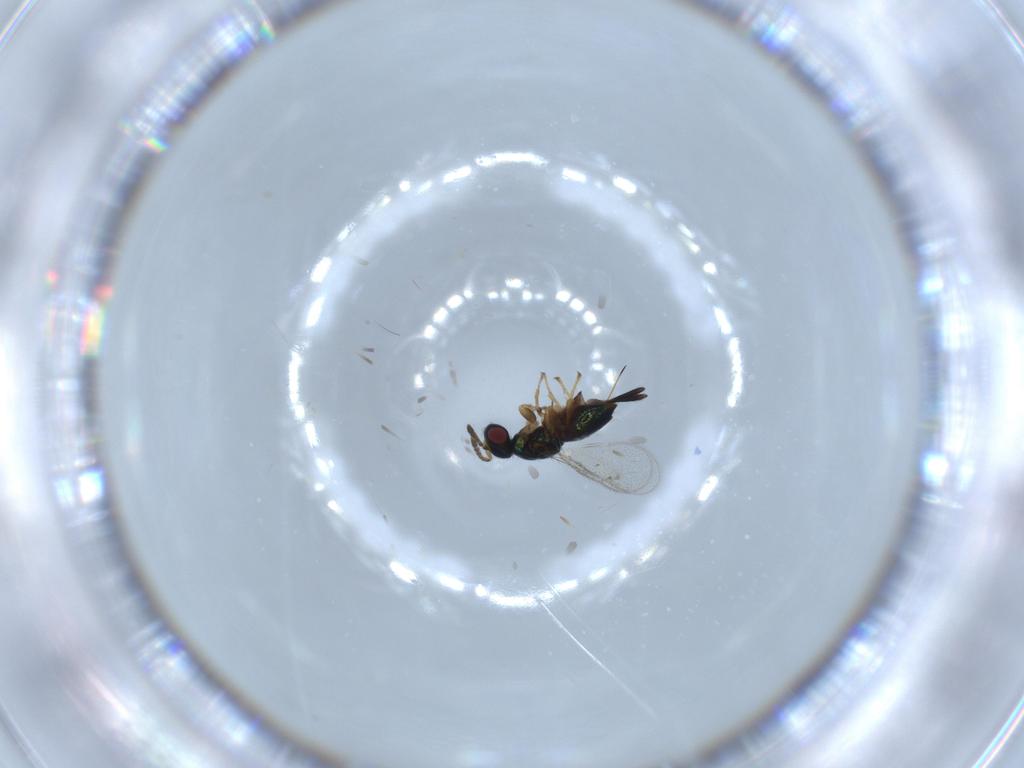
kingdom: Animalia
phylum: Arthropoda
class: Insecta
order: Hymenoptera
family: Torymidae
